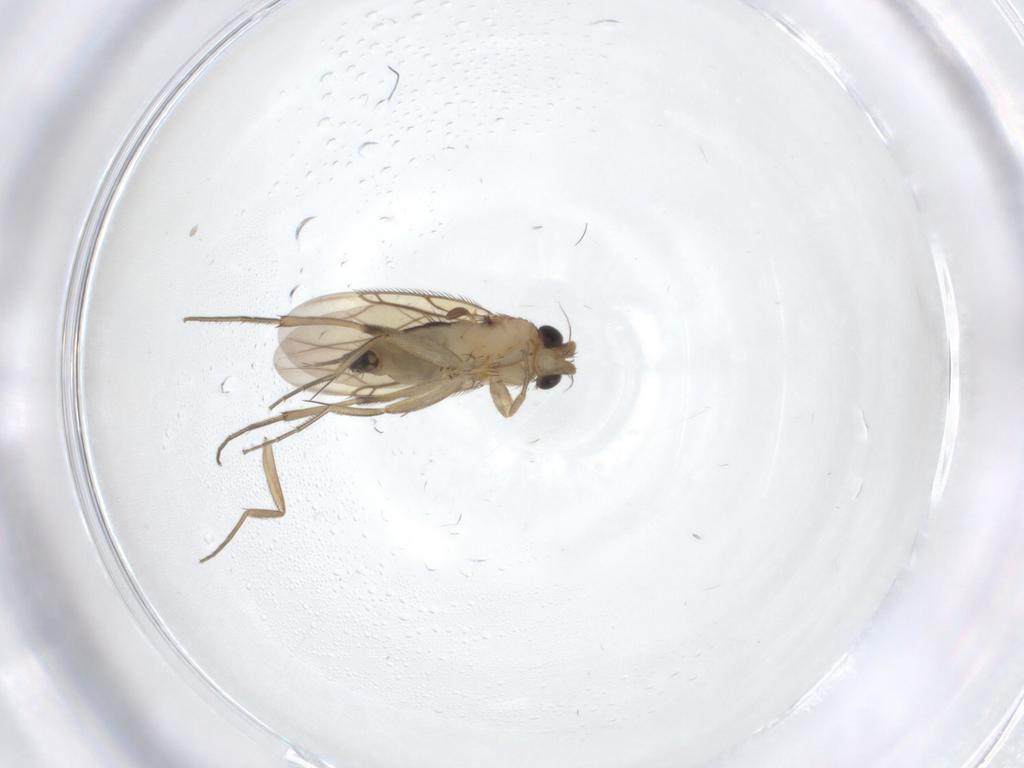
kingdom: Animalia
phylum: Arthropoda
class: Insecta
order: Diptera
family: Phoridae
